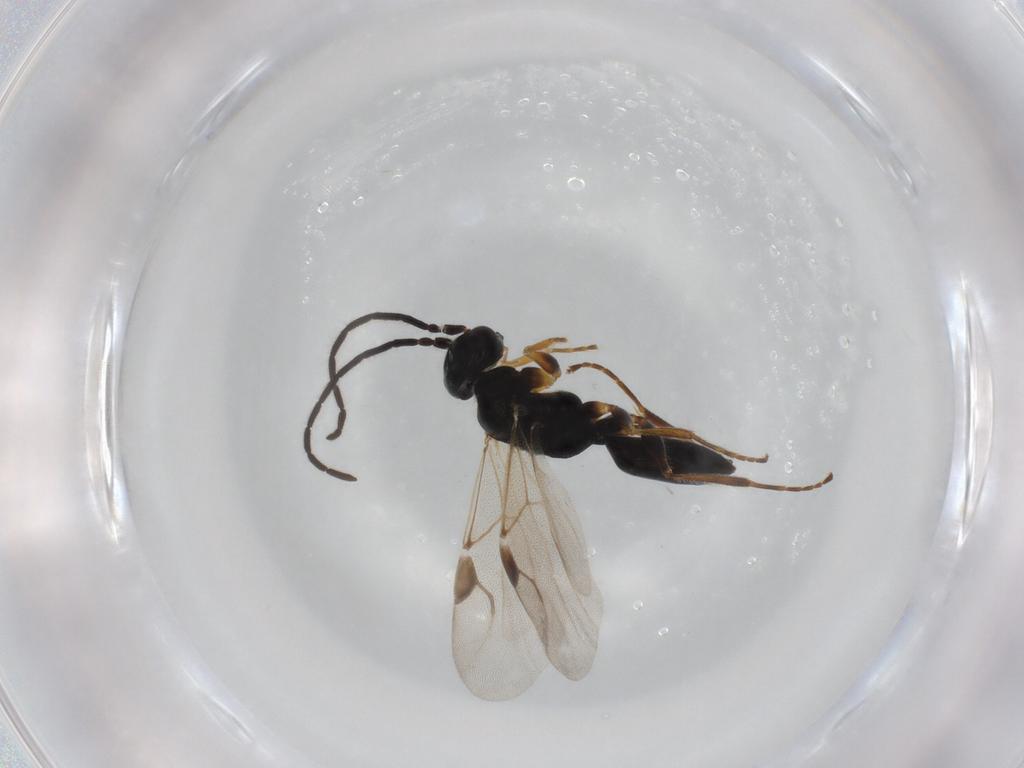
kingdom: Animalia
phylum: Arthropoda
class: Insecta
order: Hymenoptera
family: Dryinidae
